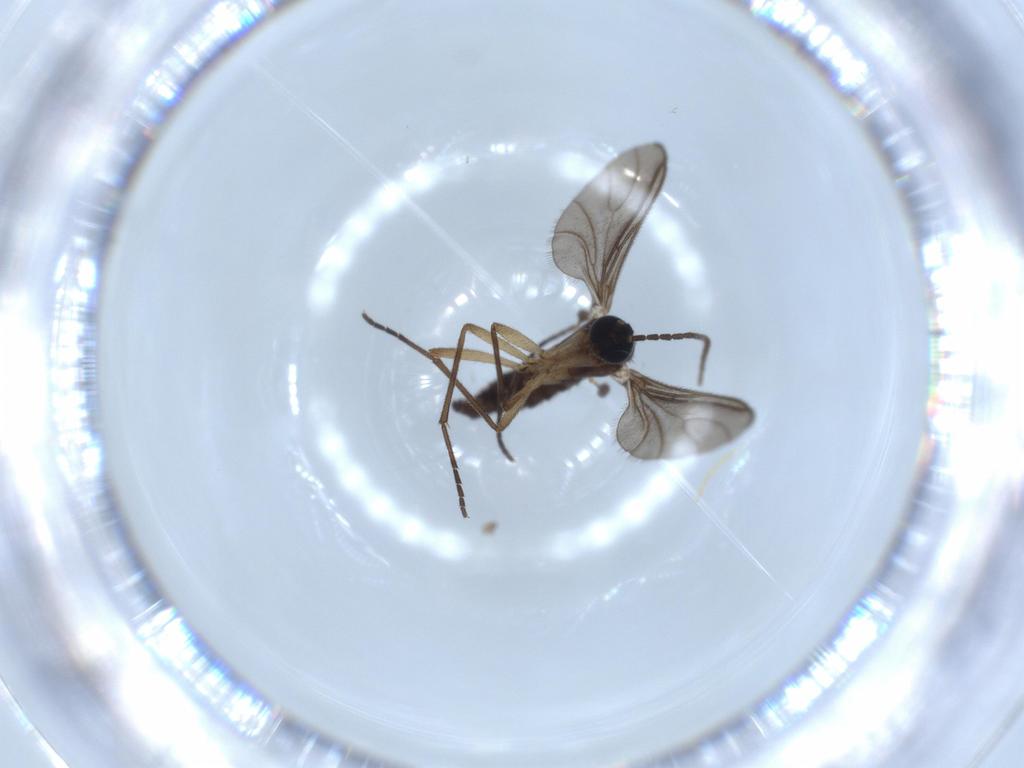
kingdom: Animalia
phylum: Arthropoda
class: Insecta
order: Diptera
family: Sciaridae
